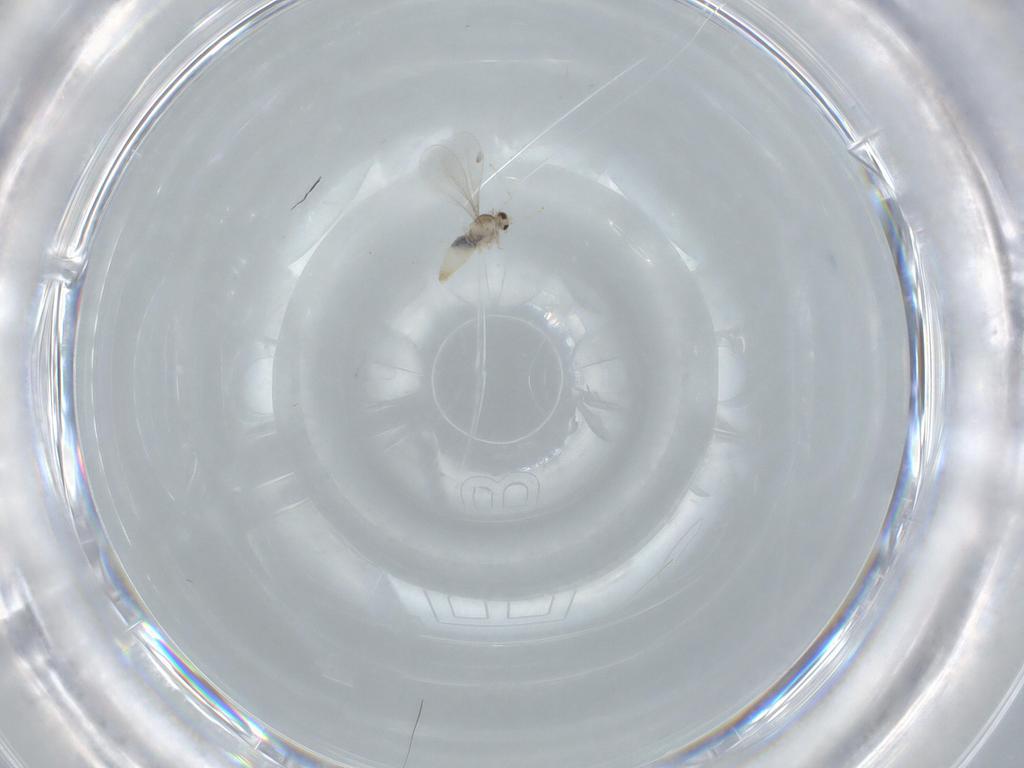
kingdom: Animalia
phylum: Arthropoda
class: Insecta
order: Diptera
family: Cecidomyiidae
